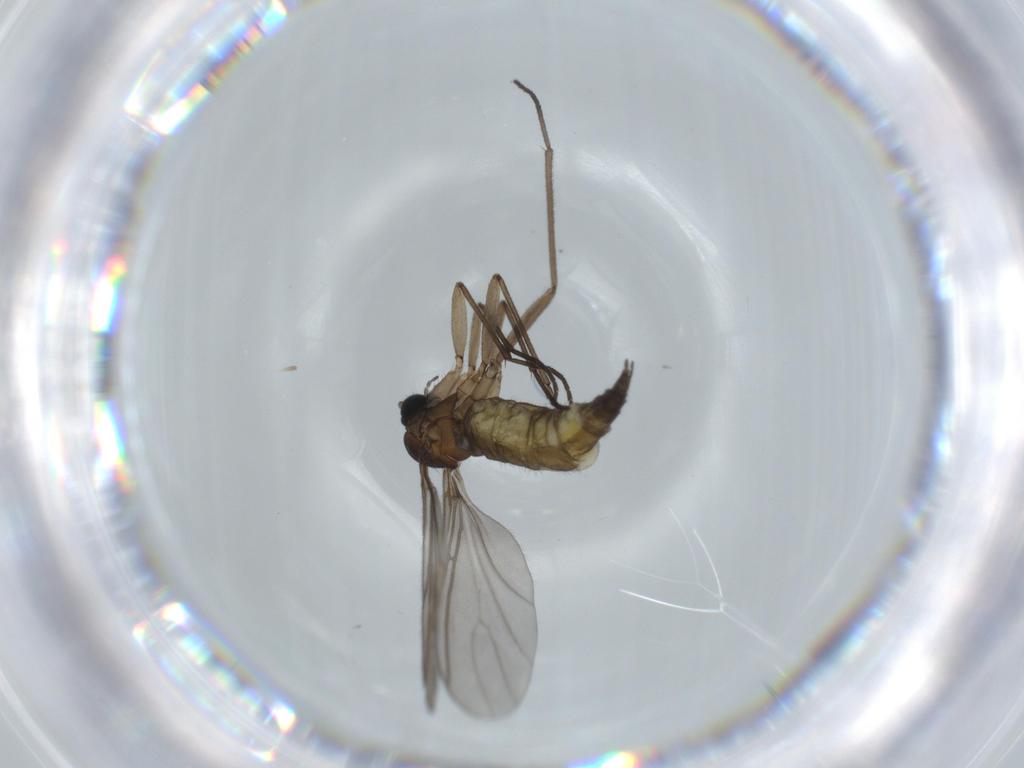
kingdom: Animalia
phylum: Arthropoda
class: Insecta
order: Diptera
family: Sciaridae
